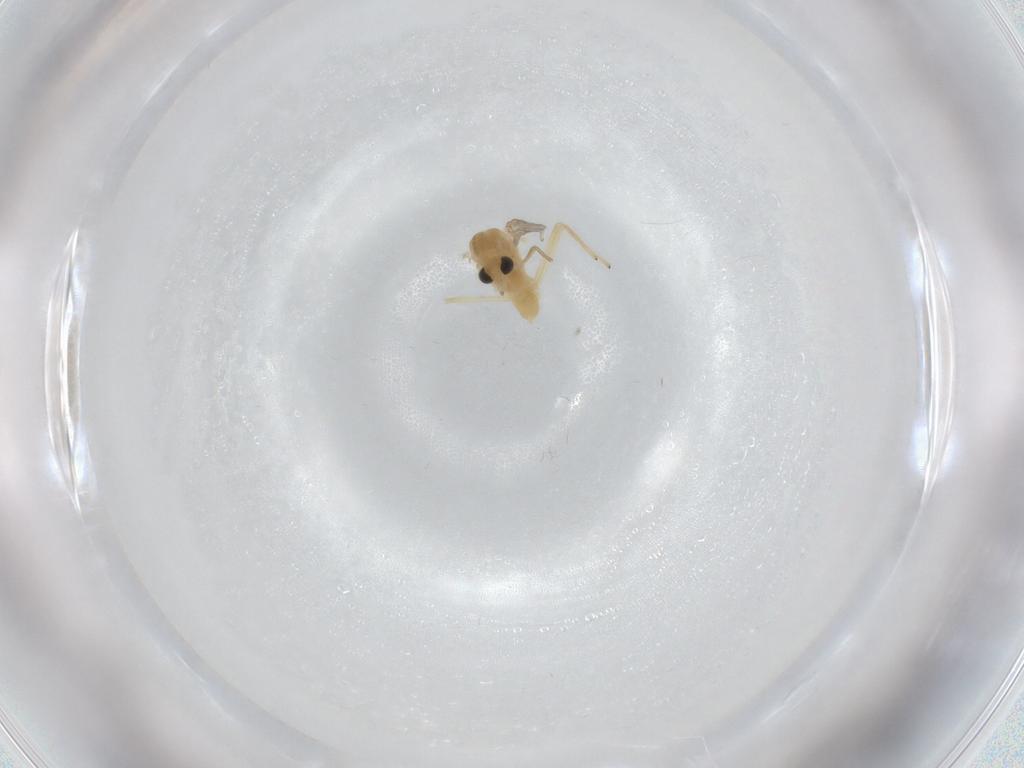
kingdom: Animalia
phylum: Arthropoda
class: Insecta
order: Diptera
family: Chironomidae
